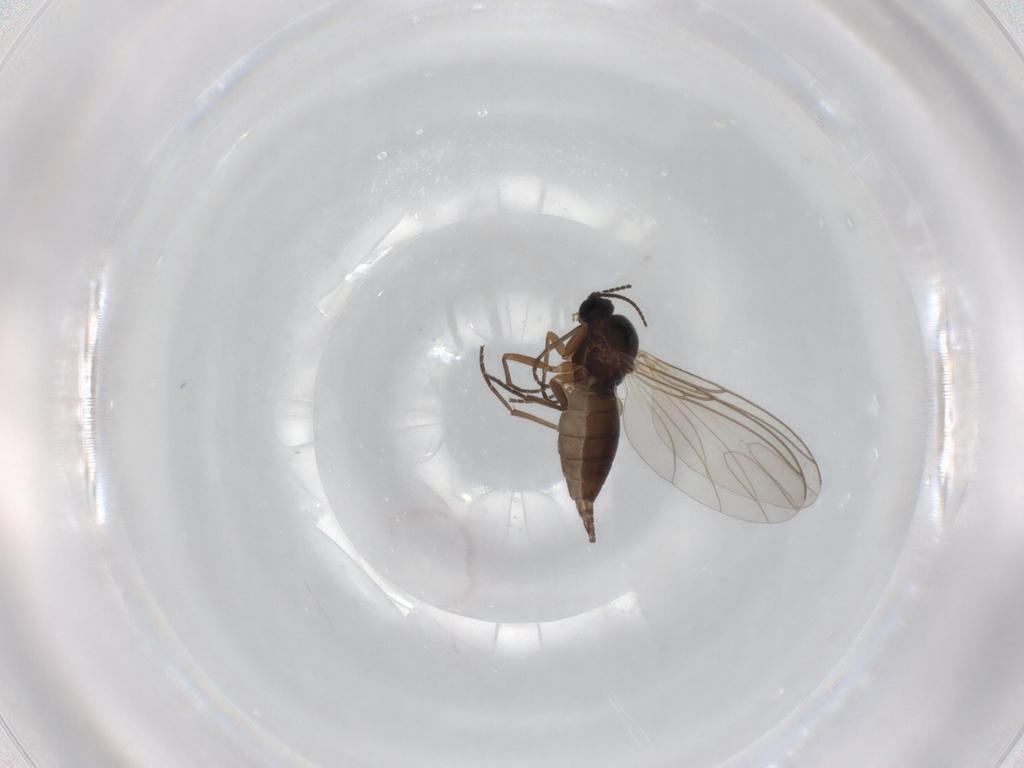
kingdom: Animalia
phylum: Arthropoda
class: Insecta
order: Diptera
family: Sciaridae
